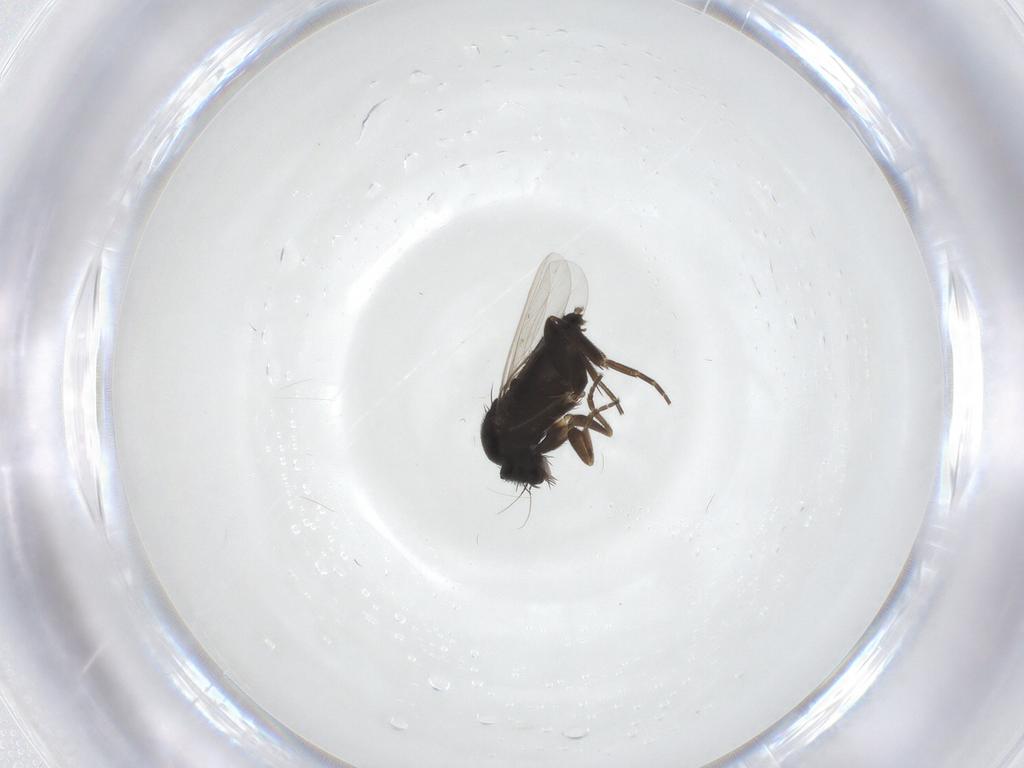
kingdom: Animalia
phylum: Arthropoda
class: Insecta
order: Diptera
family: Phoridae
